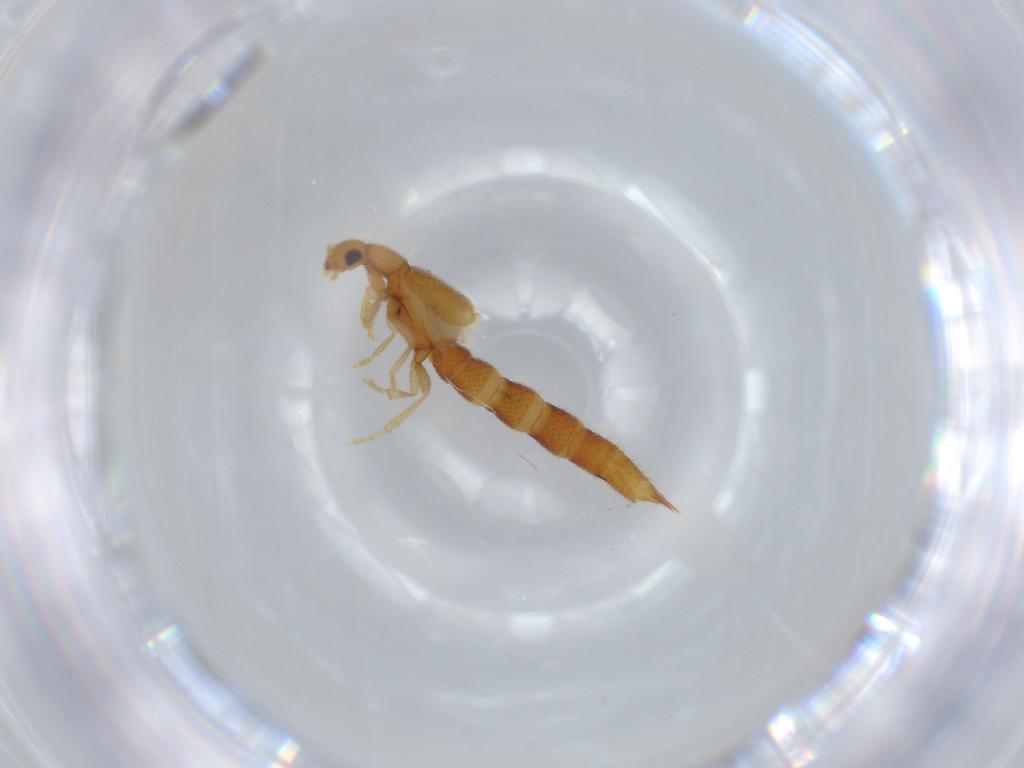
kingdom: Animalia
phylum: Arthropoda
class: Insecta
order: Coleoptera
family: Staphylinidae
